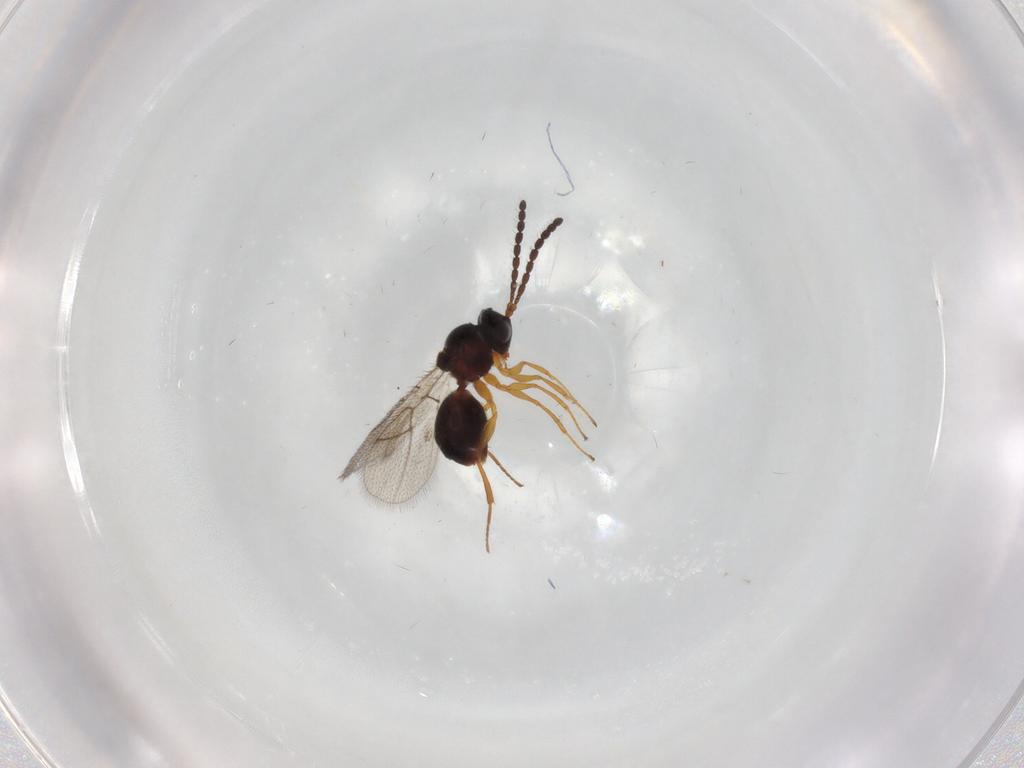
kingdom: Animalia
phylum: Arthropoda
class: Insecta
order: Hymenoptera
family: Figitidae
